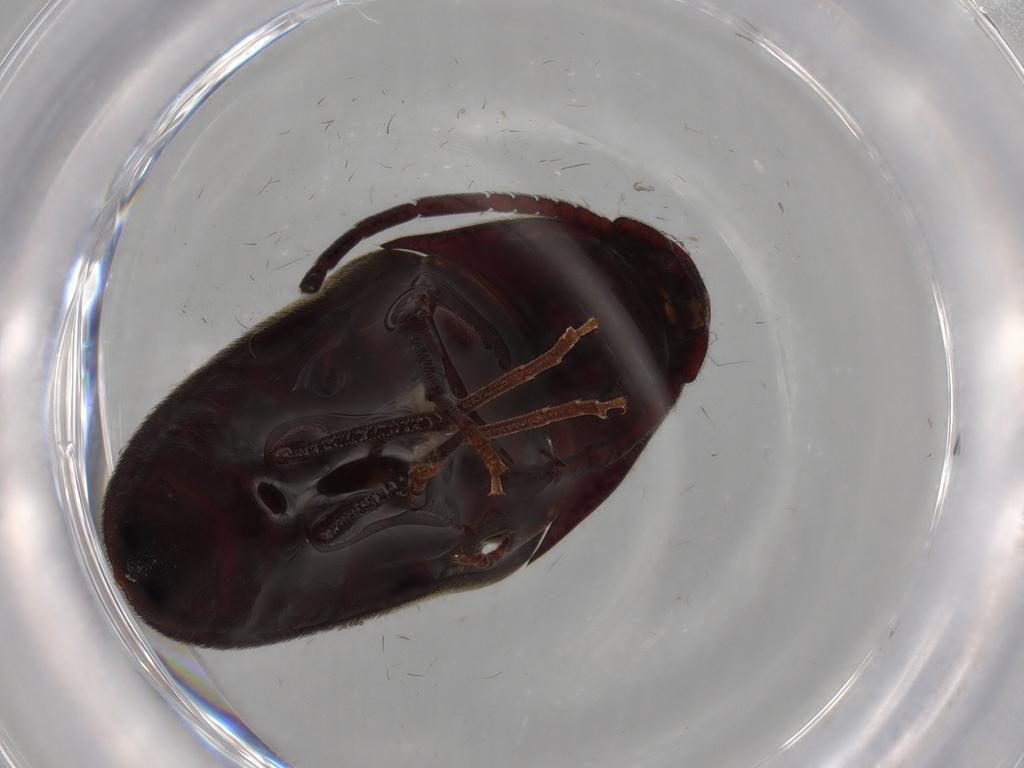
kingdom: Animalia
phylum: Arthropoda
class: Insecta
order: Coleoptera
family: Eucnemidae
